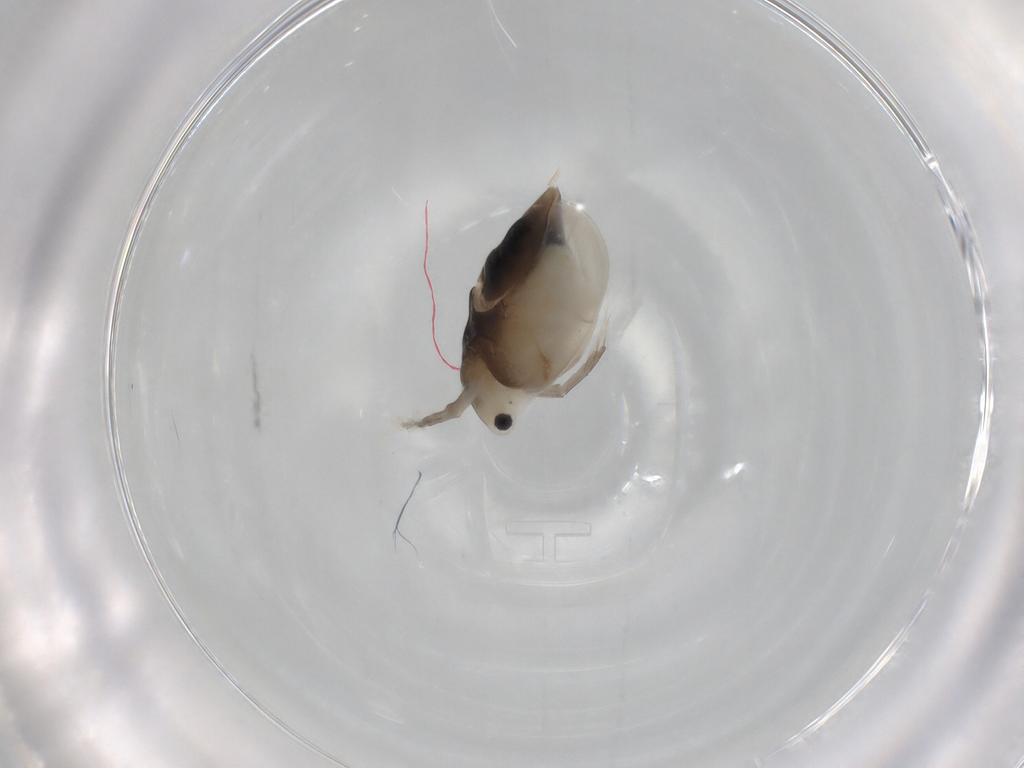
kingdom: Animalia
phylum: Arthropoda
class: Branchiopoda
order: Diplostraca
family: Daphniidae
